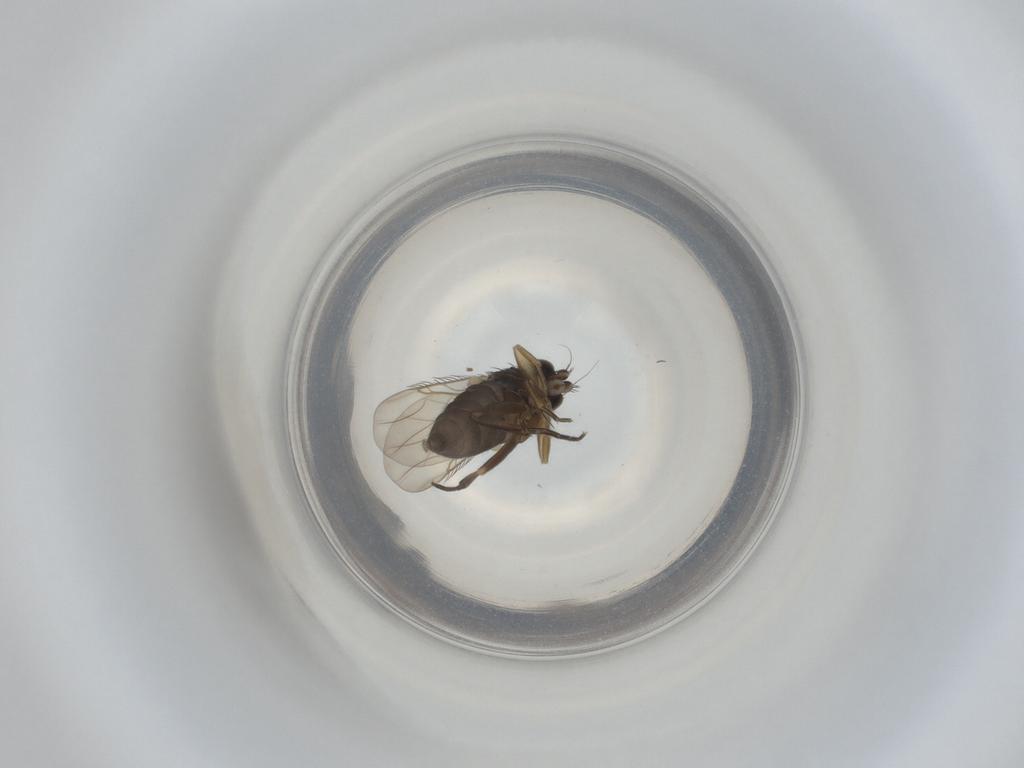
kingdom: Animalia
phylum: Arthropoda
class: Insecta
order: Diptera
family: Phoridae
